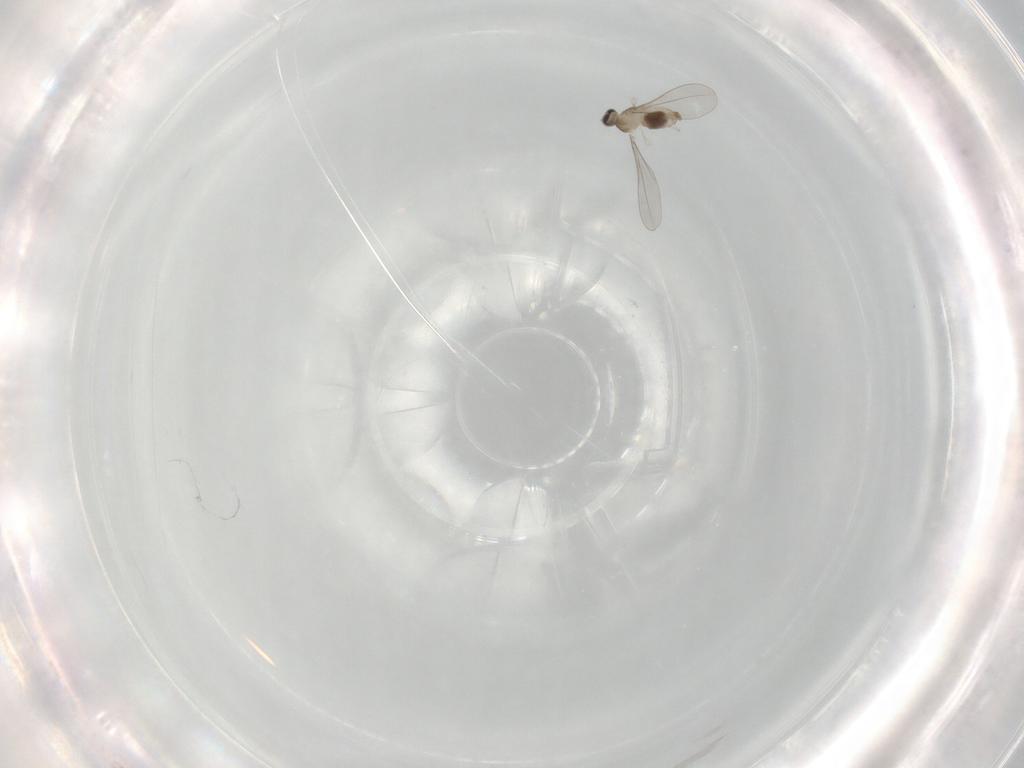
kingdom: Animalia
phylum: Arthropoda
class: Insecta
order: Diptera
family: Cecidomyiidae
